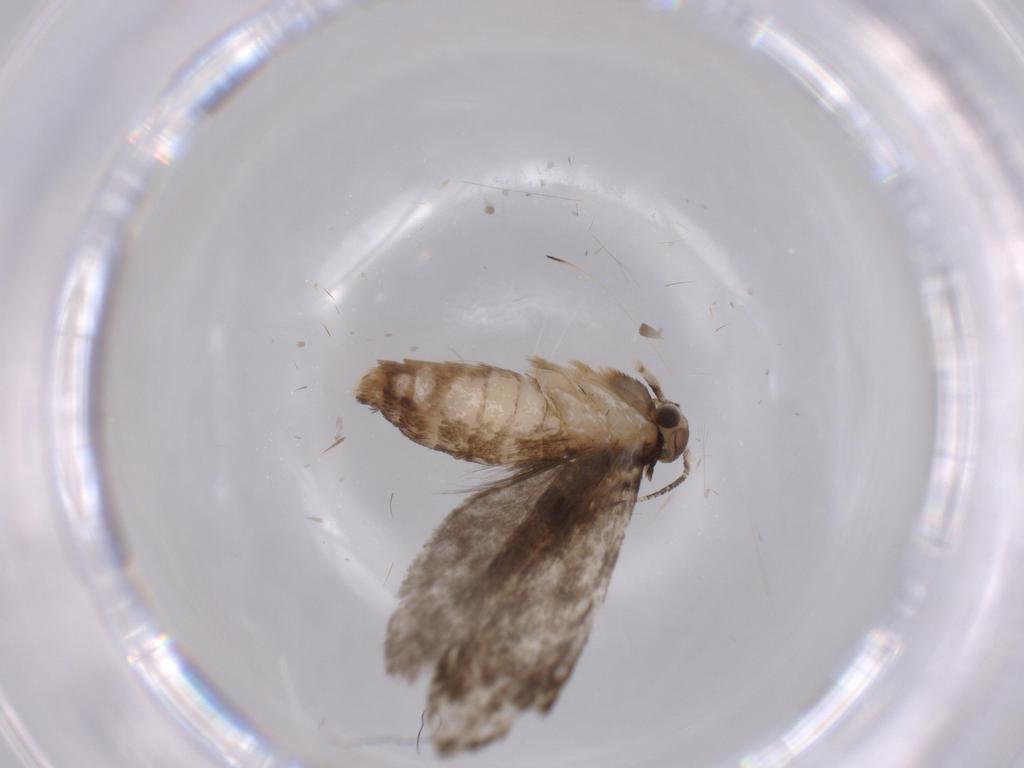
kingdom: Animalia
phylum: Arthropoda
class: Insecta
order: Lepidoptera
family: Tineidae
